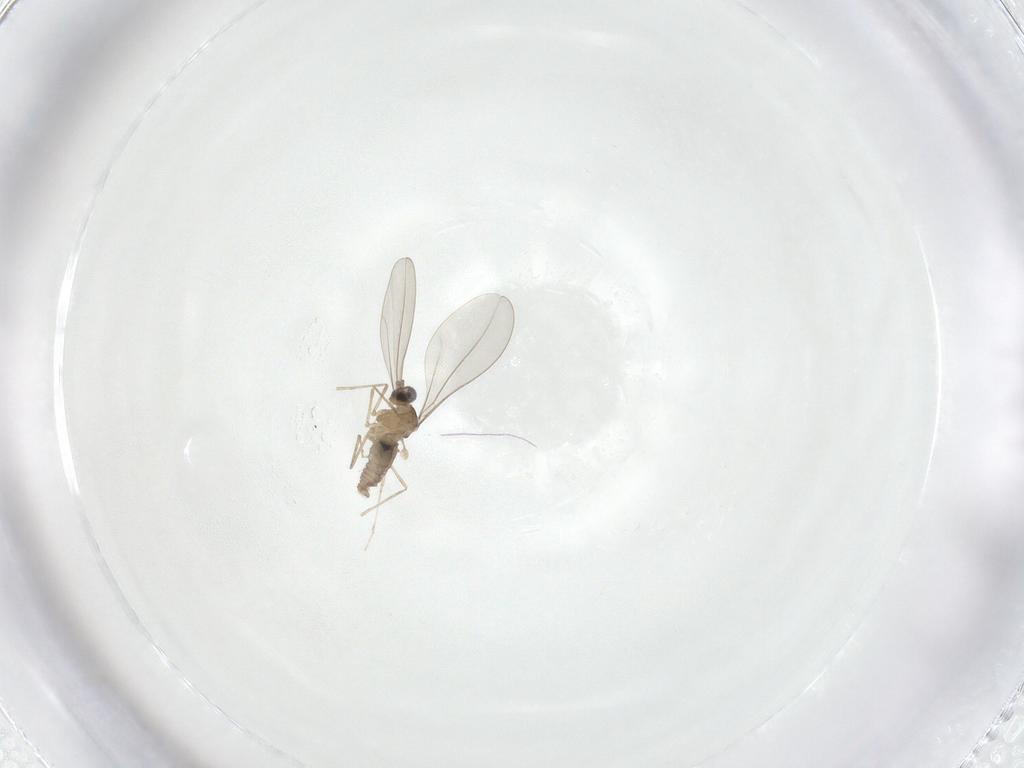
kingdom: Animalia
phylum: Arthropoda
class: Insecta
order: Diptera
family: Cecidomyiidae
